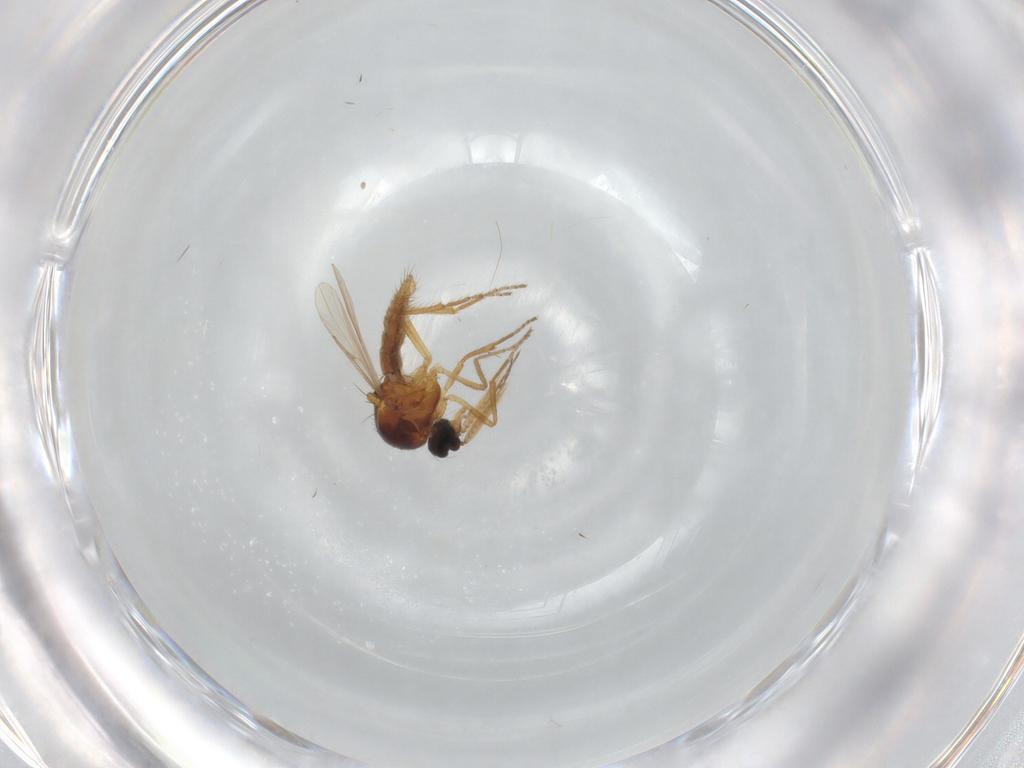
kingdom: Animalia
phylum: Arthropoda
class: Insecta
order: Diptera
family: Ceratopogonidae
